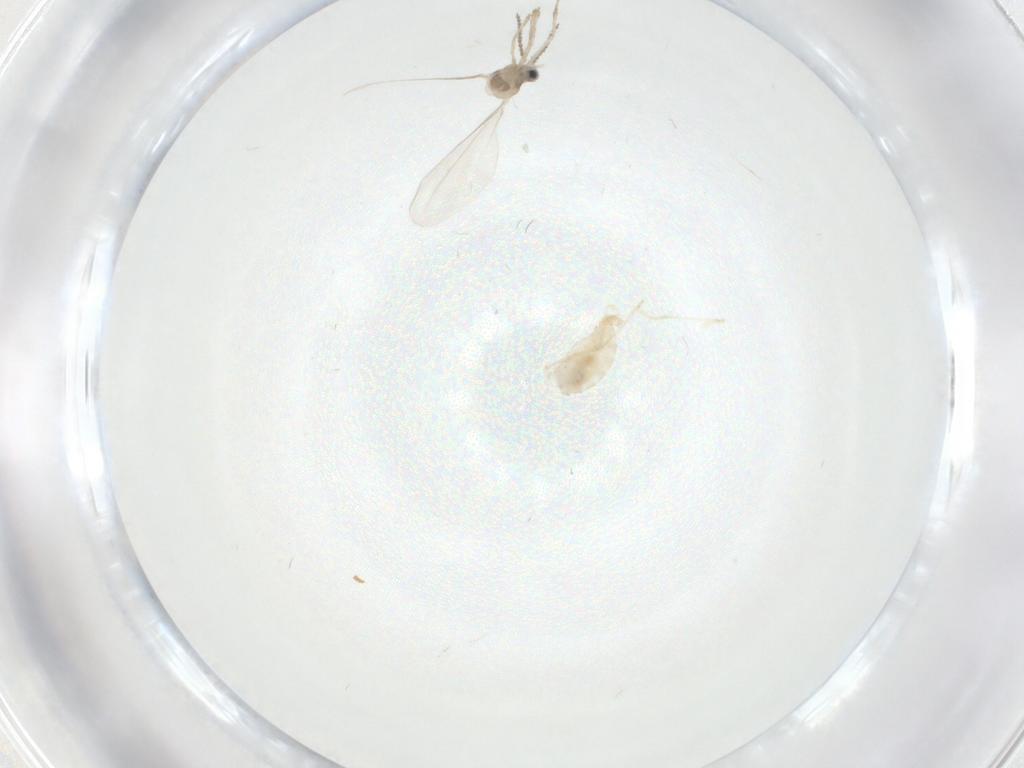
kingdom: Animalia
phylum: Arthropoda
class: Insecta
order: Diptera
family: Cecidomyiidae
